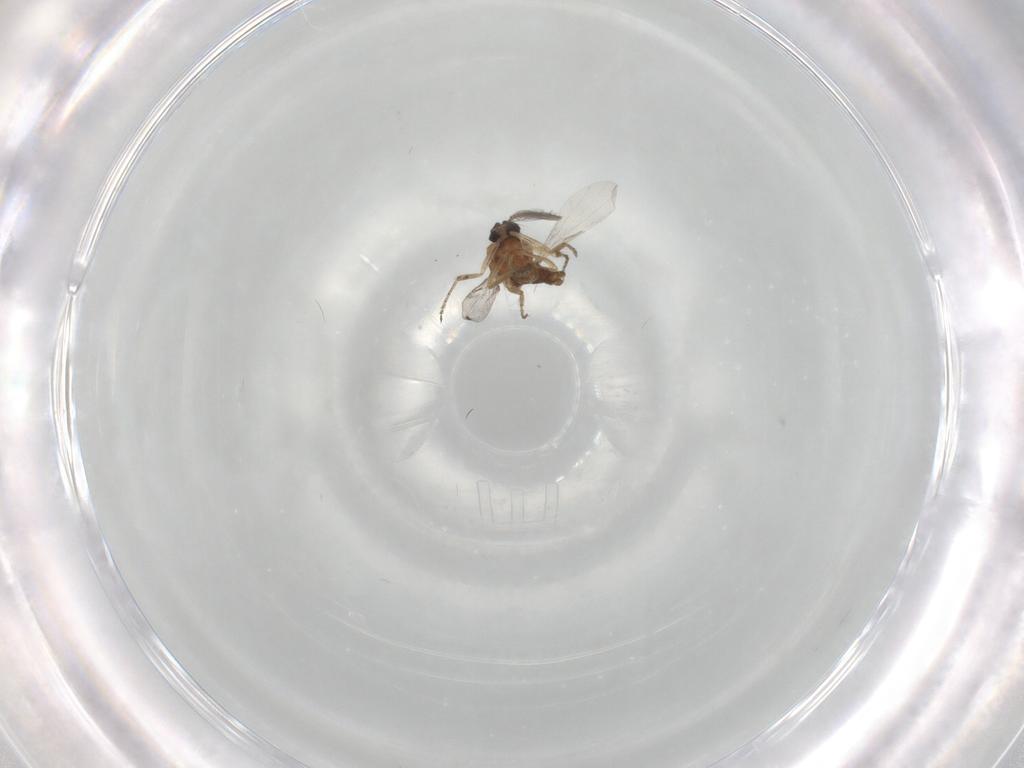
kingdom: Animalia
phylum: Arthropoda
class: Insecta
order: Diptera
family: Ceratopogonidae
